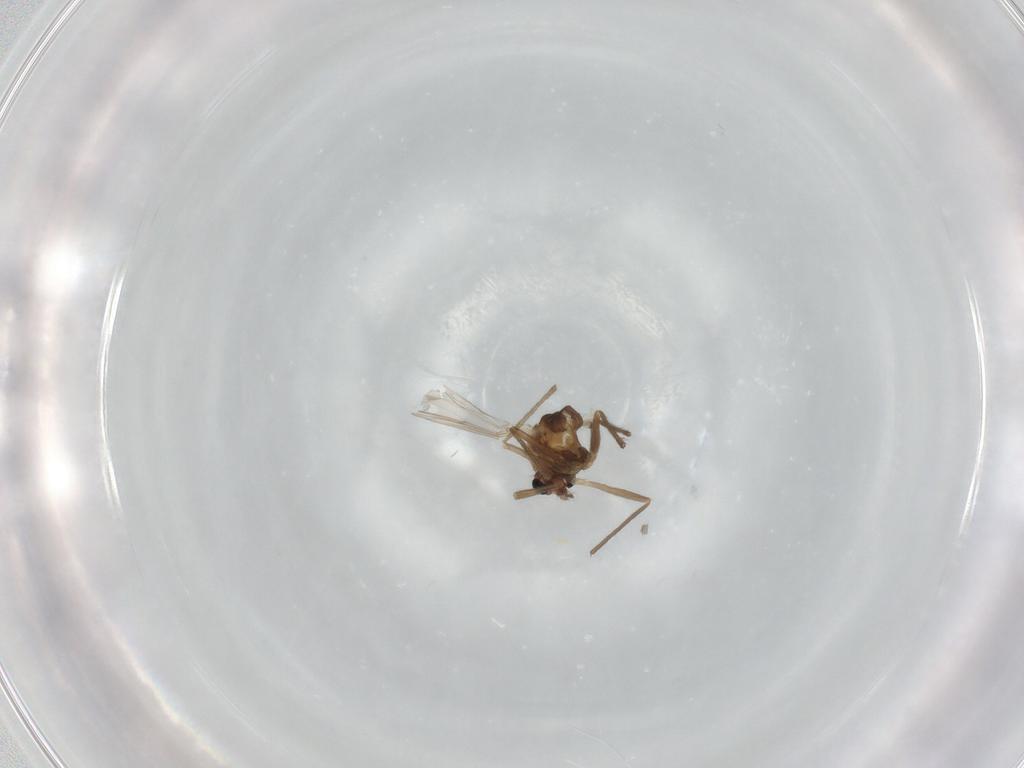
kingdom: Animalia
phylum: Arthropoda
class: Insecta
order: Diptera
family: Chironomidae
